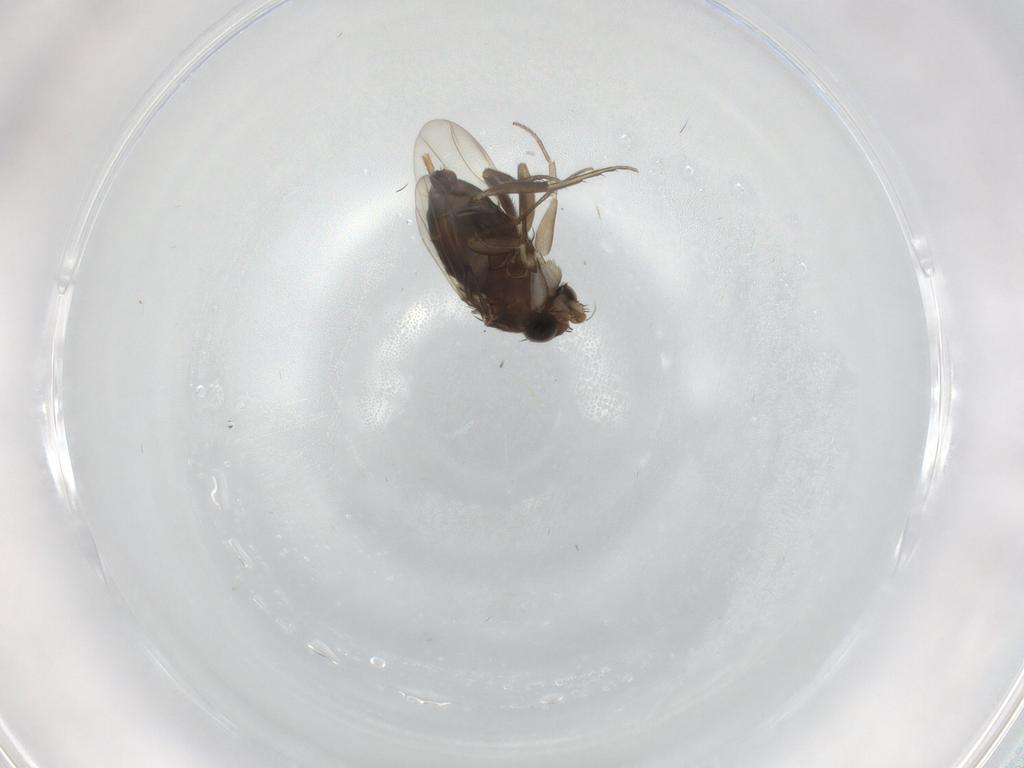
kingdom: Animalia
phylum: Arthropoda
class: Insecta
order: Diptera
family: Phoridae
